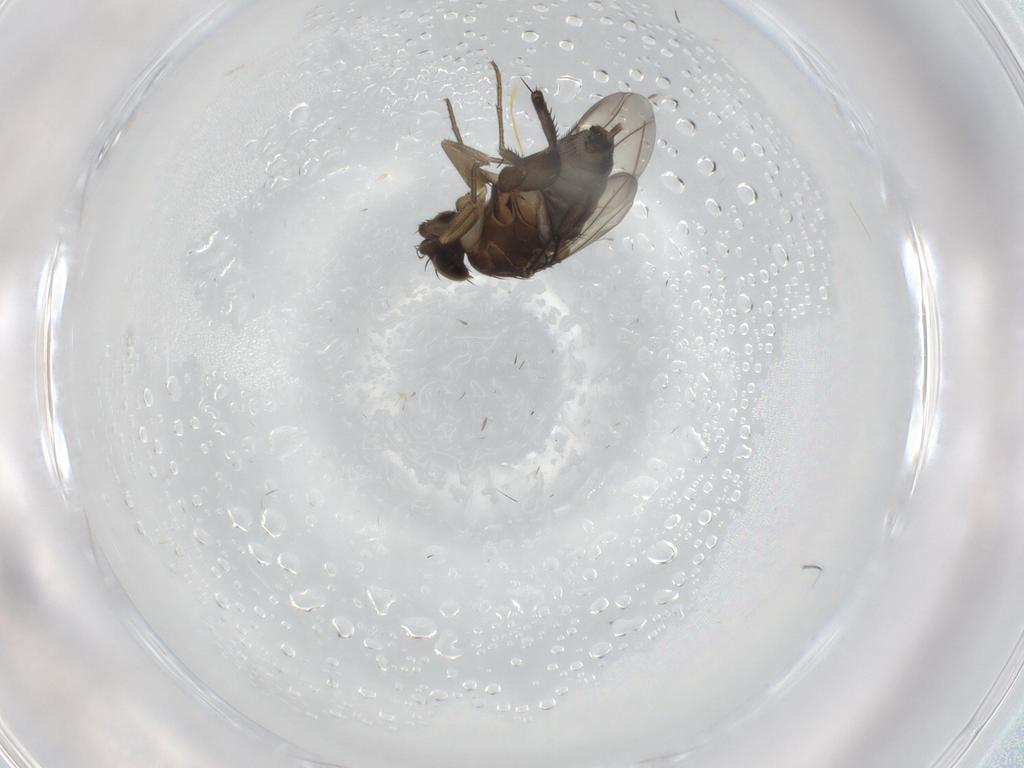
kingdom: Animalia
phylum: Arthropoda
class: Insecta
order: Diptera
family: Phoridae
